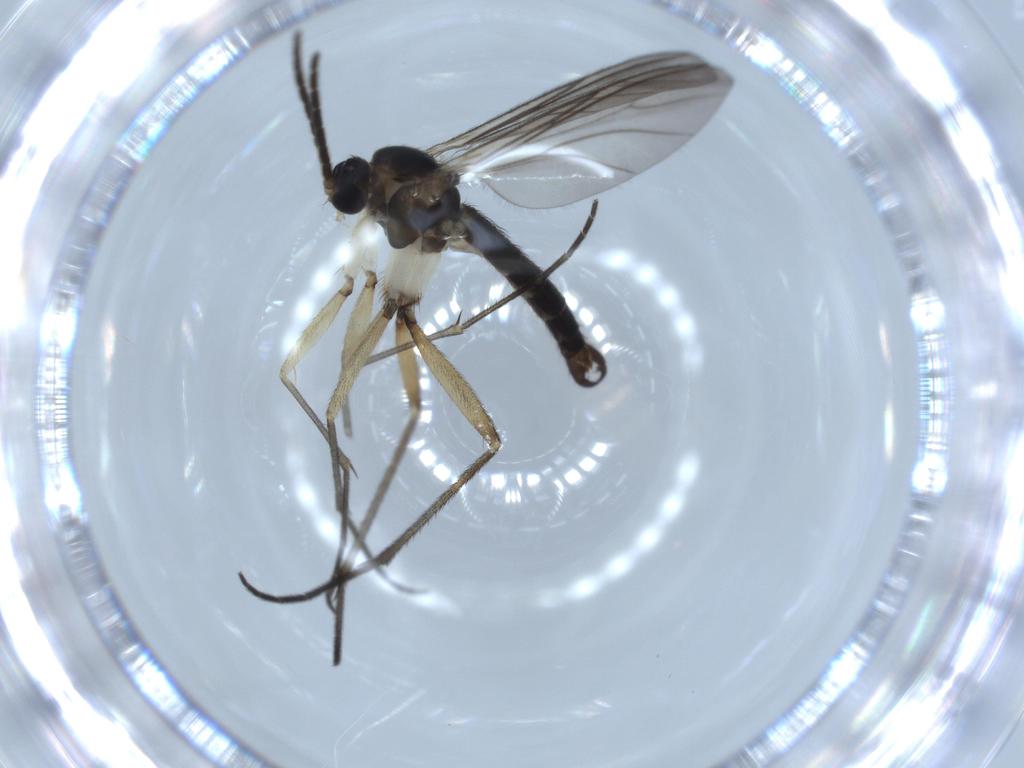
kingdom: Animalia
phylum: Arthropoda
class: Insecta
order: Diptera
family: Sciaridae
